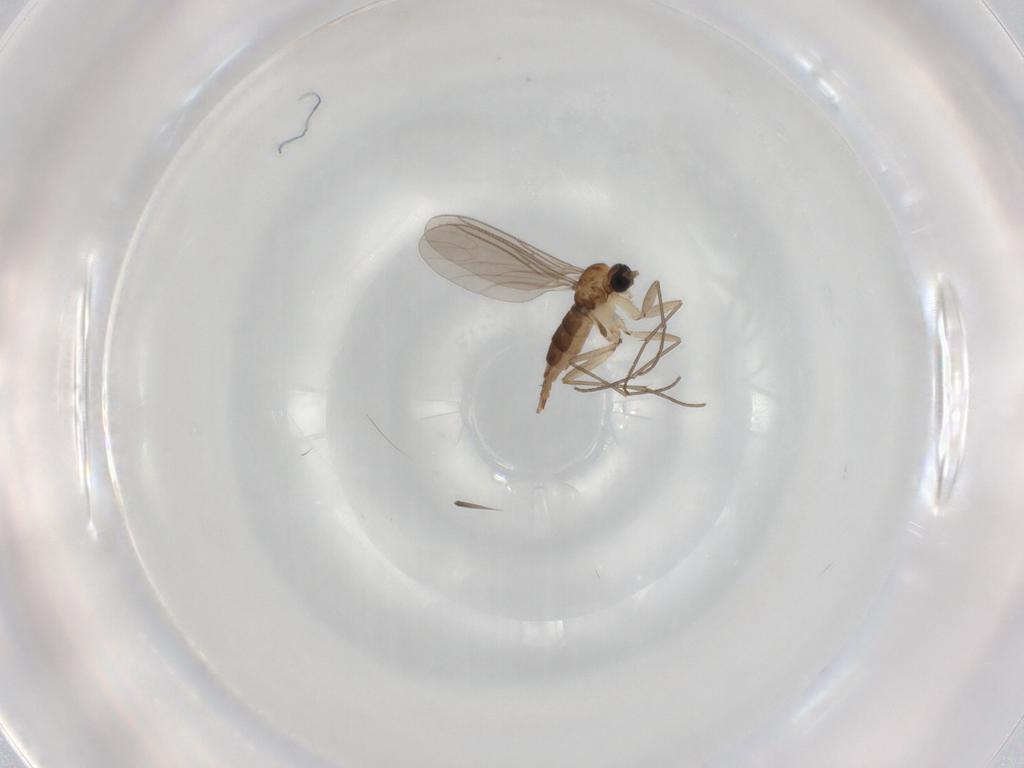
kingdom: Animalia
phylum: Arthropoda
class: Insecta
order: Diptera
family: Sciaridae
